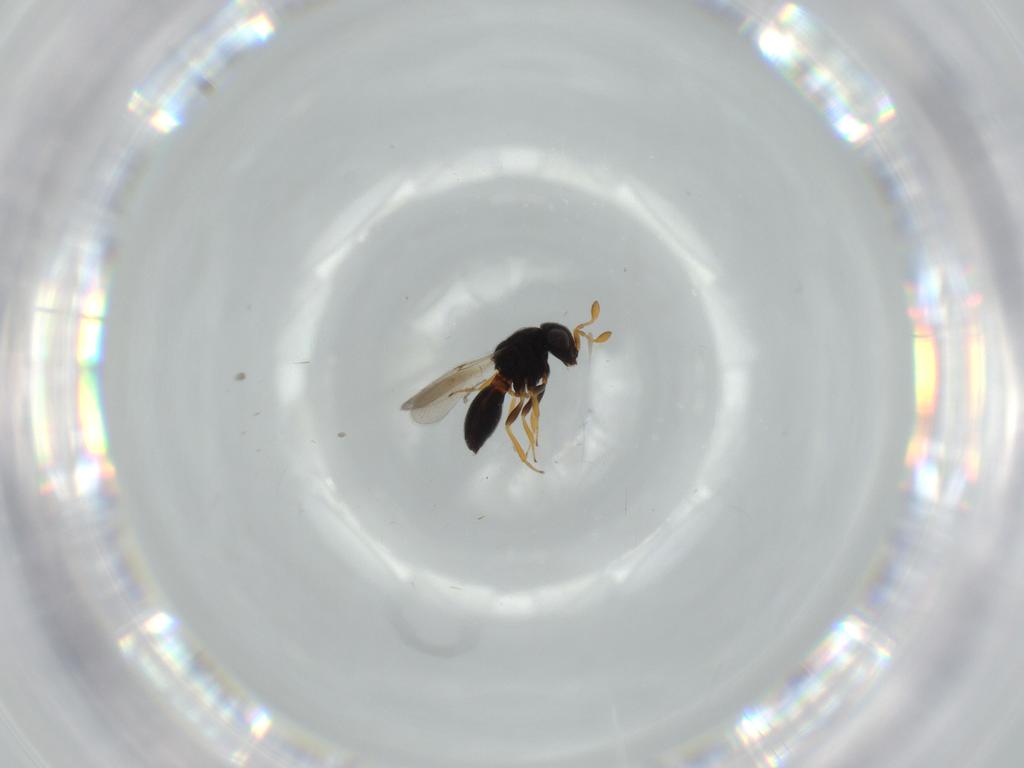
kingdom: Animalia
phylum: Arthropoda
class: Insecta
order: Hymenoptera
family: Scelionidae
